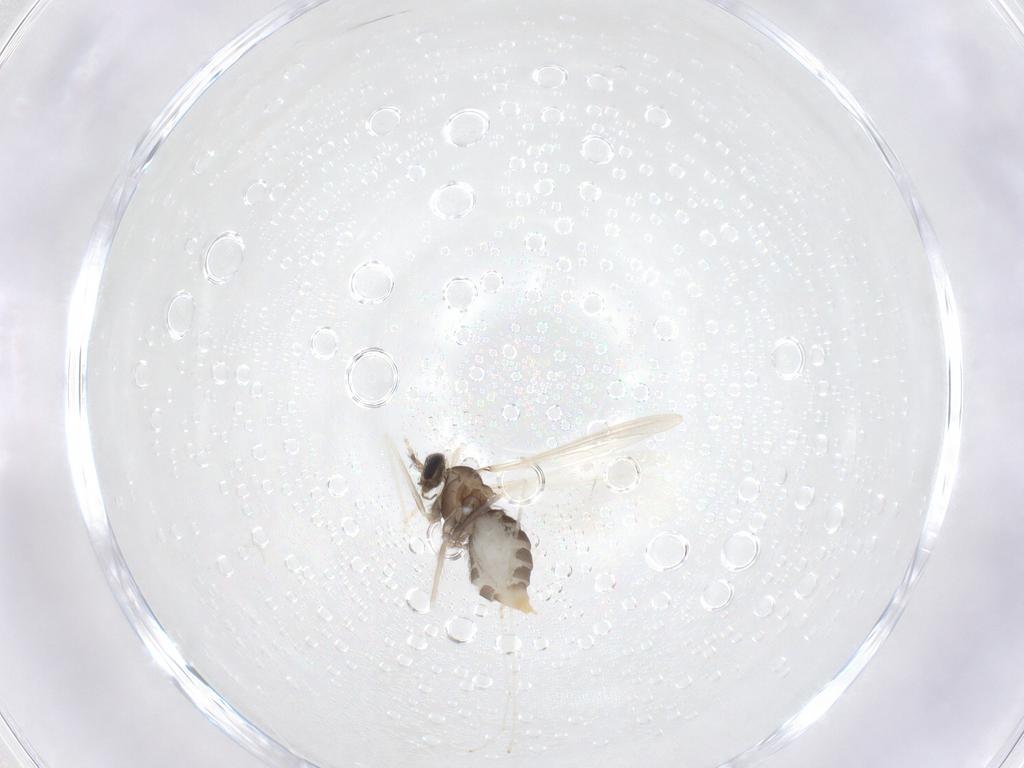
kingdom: Animalia
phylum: Arthropoda
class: Insecta
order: Diptera
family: Cecidomyiidae
